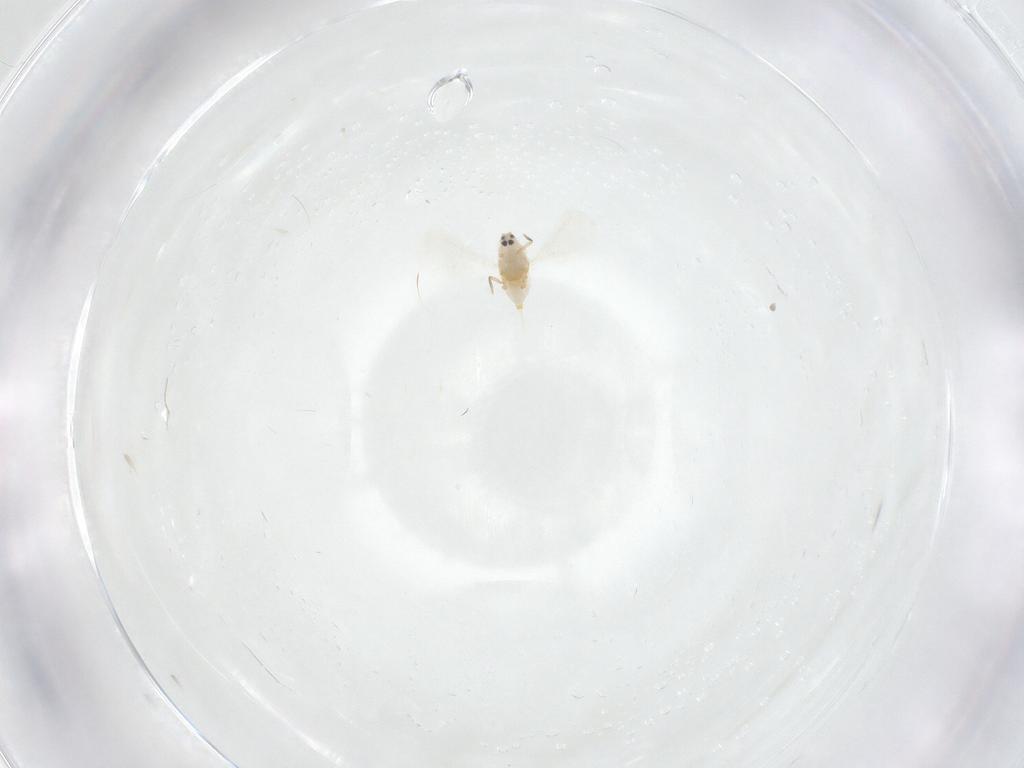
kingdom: Animalia
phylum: Arthropoda
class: Insecta
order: Hemiptera
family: Diaspididae
